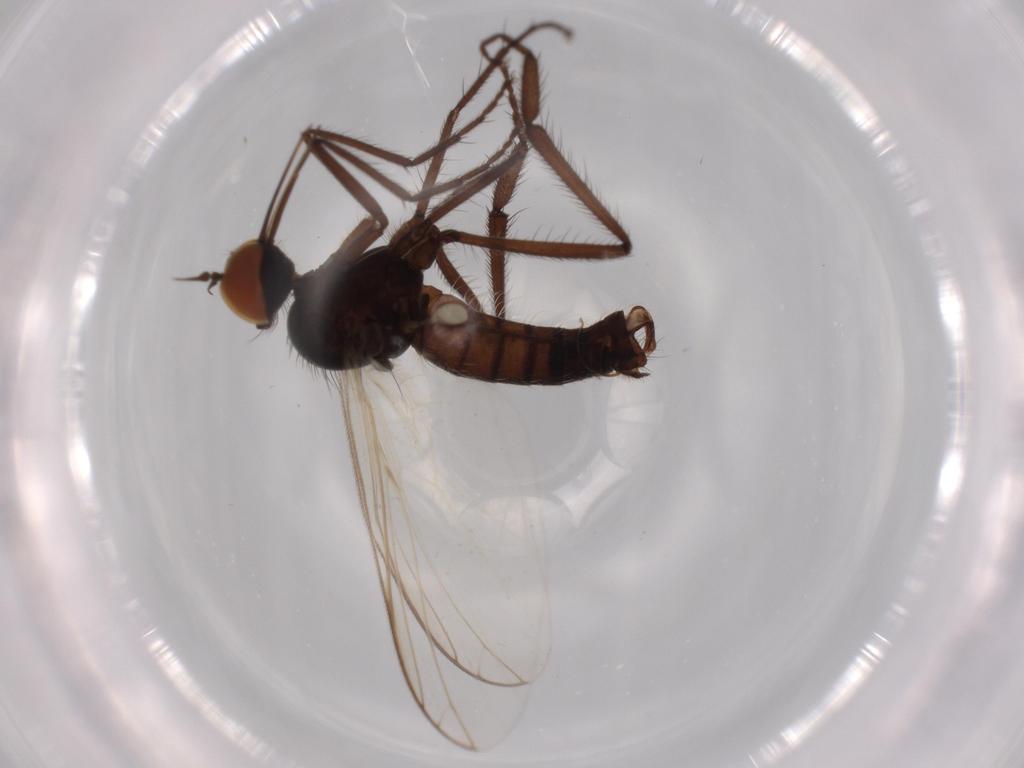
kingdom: Animalia
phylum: Arthropoda
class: Insecta
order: Diptera
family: Empididae
